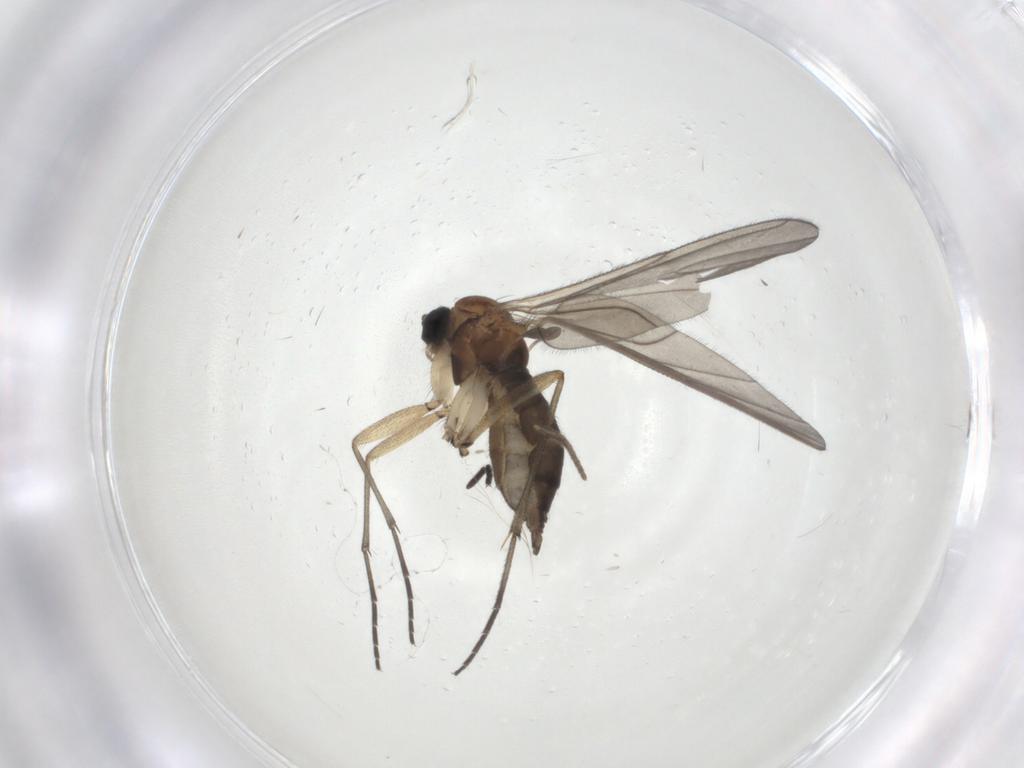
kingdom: Animalia
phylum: Arthropoda
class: Insecta
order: Diptera
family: Sciaridae
